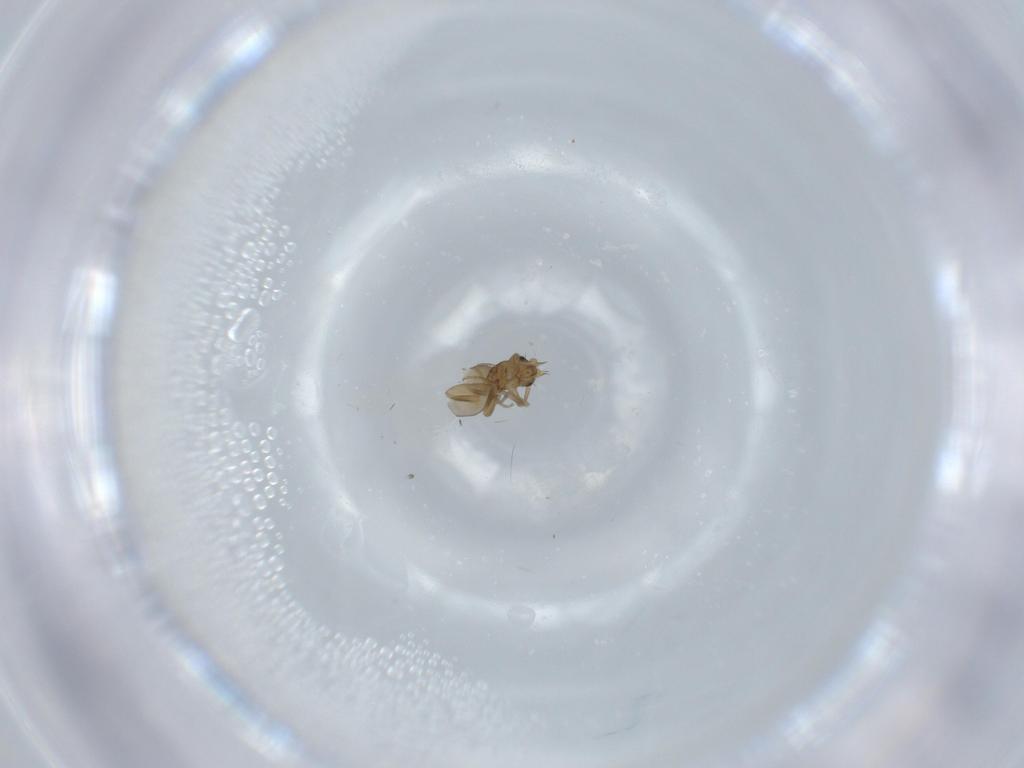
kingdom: Animalia
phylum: Arthropoda
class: Insecta
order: Diptera
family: Phoridae
